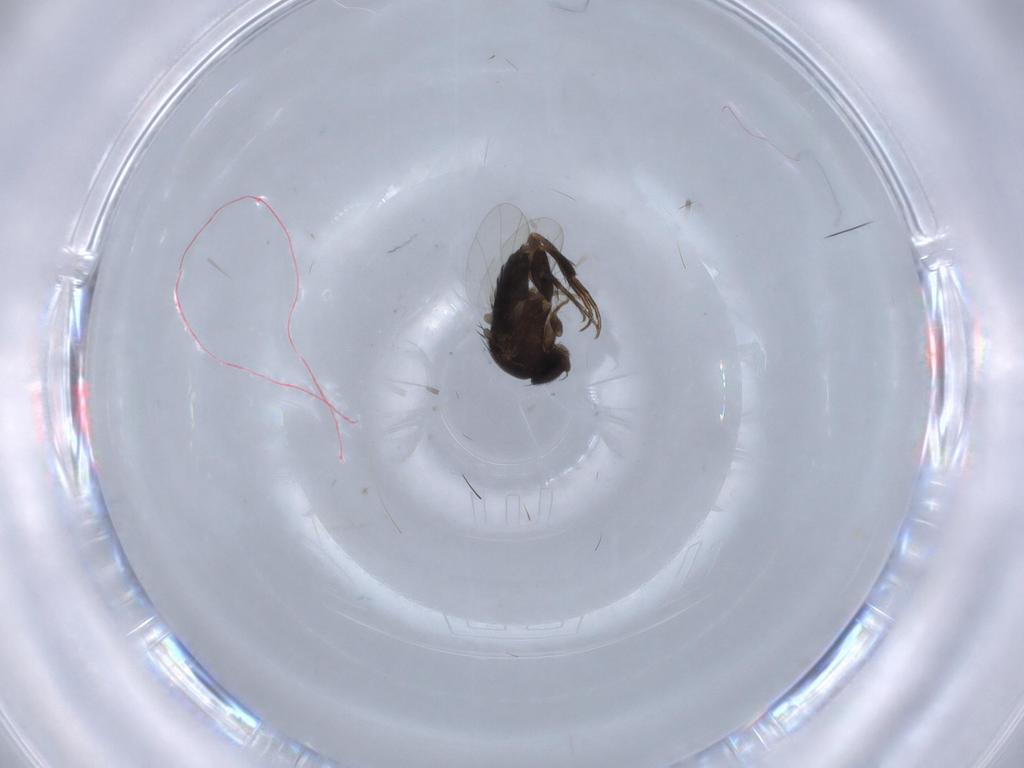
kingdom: Animalia
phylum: Arthropoda
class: Insecta
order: Diptera
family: Phoridae
